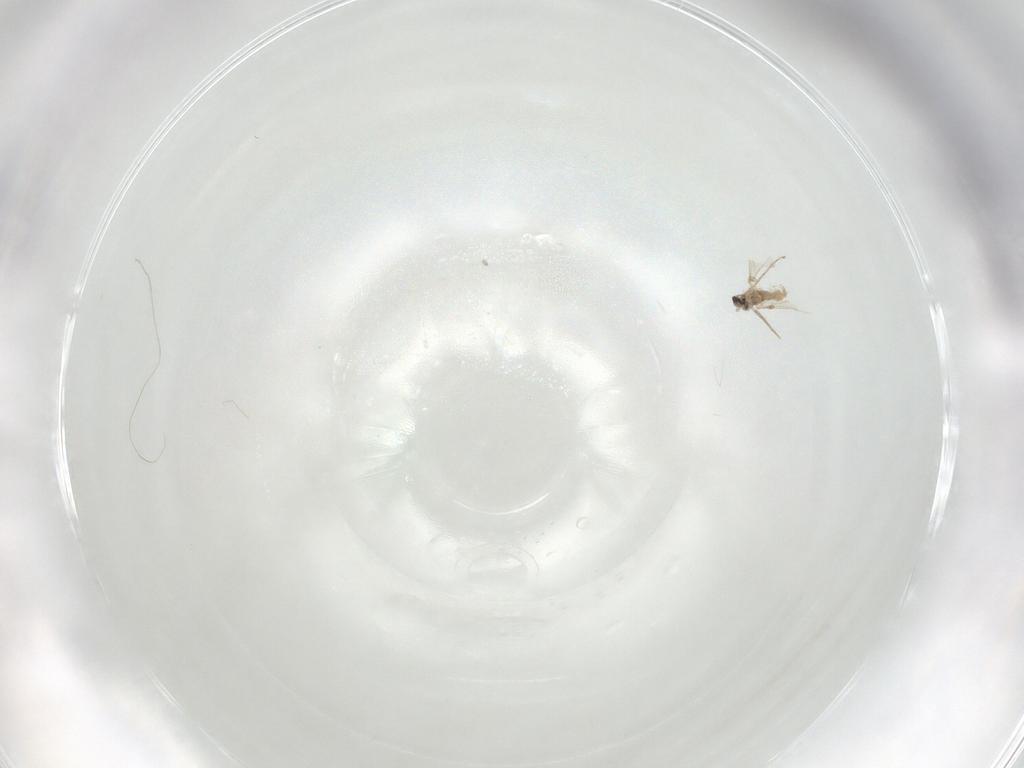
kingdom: Animalia
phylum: Arthropoda
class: Insecta
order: Diptera
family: Cecidomyiidae
